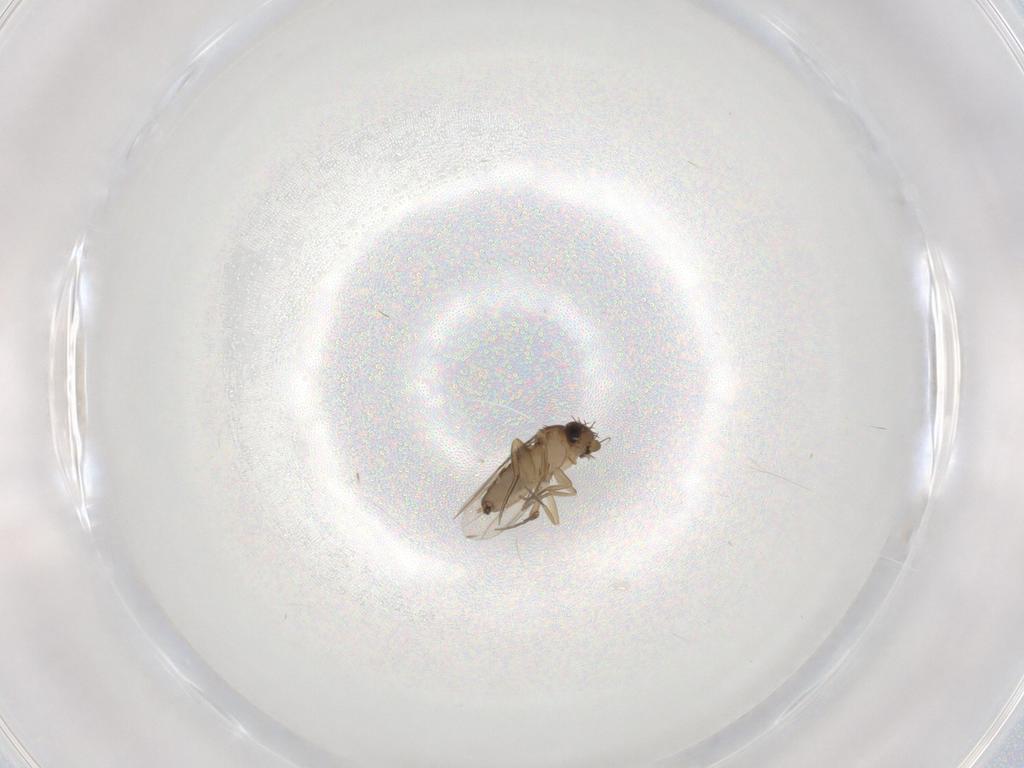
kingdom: Animalia
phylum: Arthropoda
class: Insecta
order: Diptera
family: Phoridae
